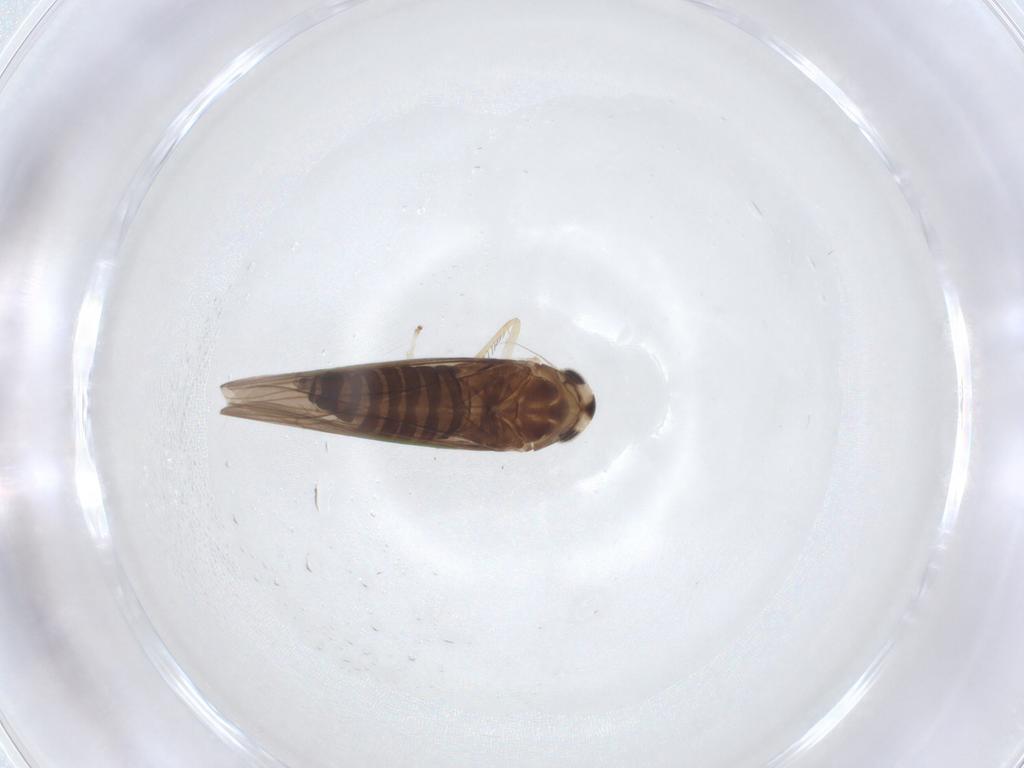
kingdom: Animalia
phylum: Arthropoda
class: Insecta
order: Hemiptera
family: Cicadellidae
